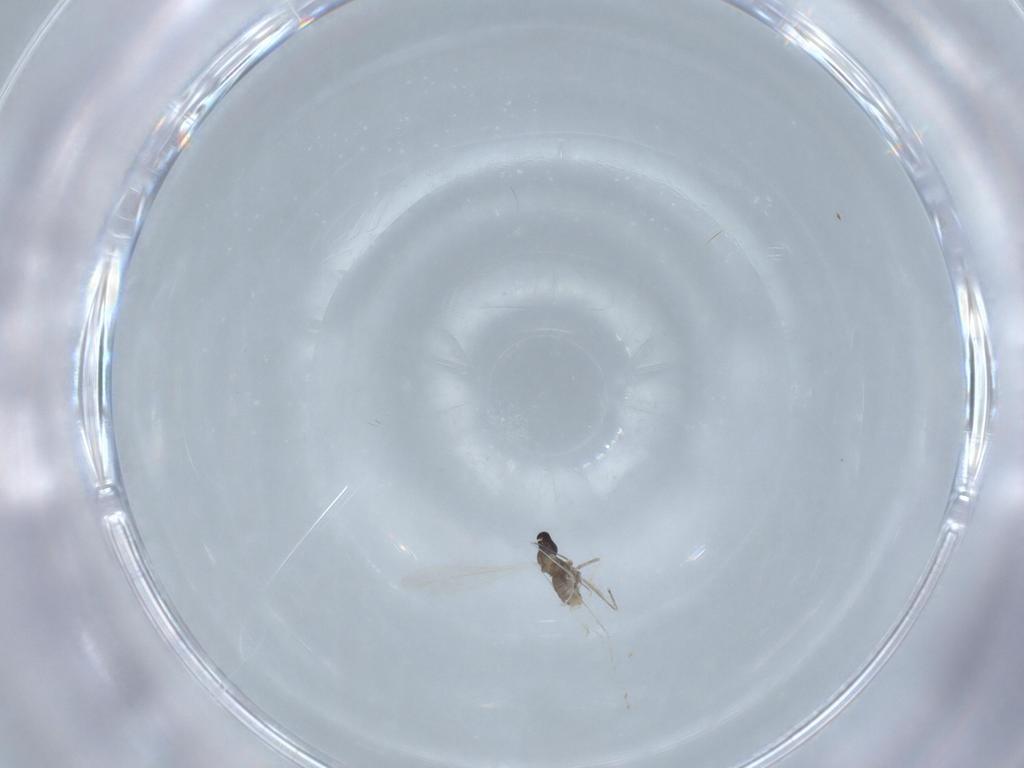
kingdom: Animalia
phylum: Arthropoda
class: Insecta
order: Diptera
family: Cecidomyiidae
